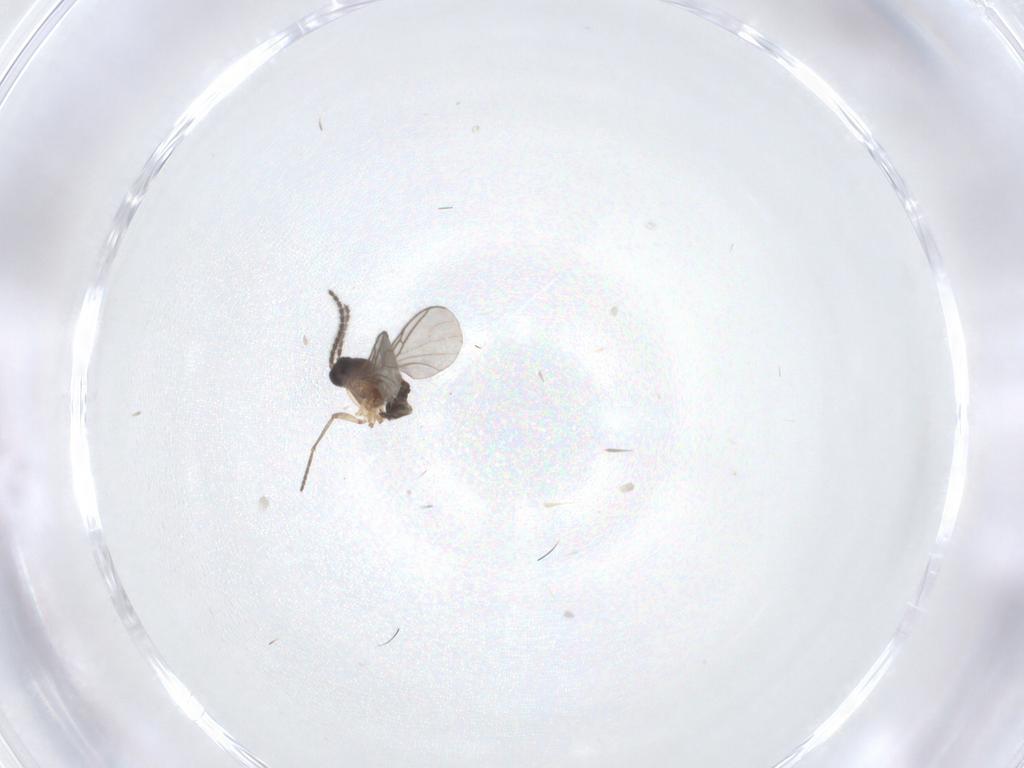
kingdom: Animalia
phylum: Arthropoda
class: Insecta
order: Diptera
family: Sciaridae
